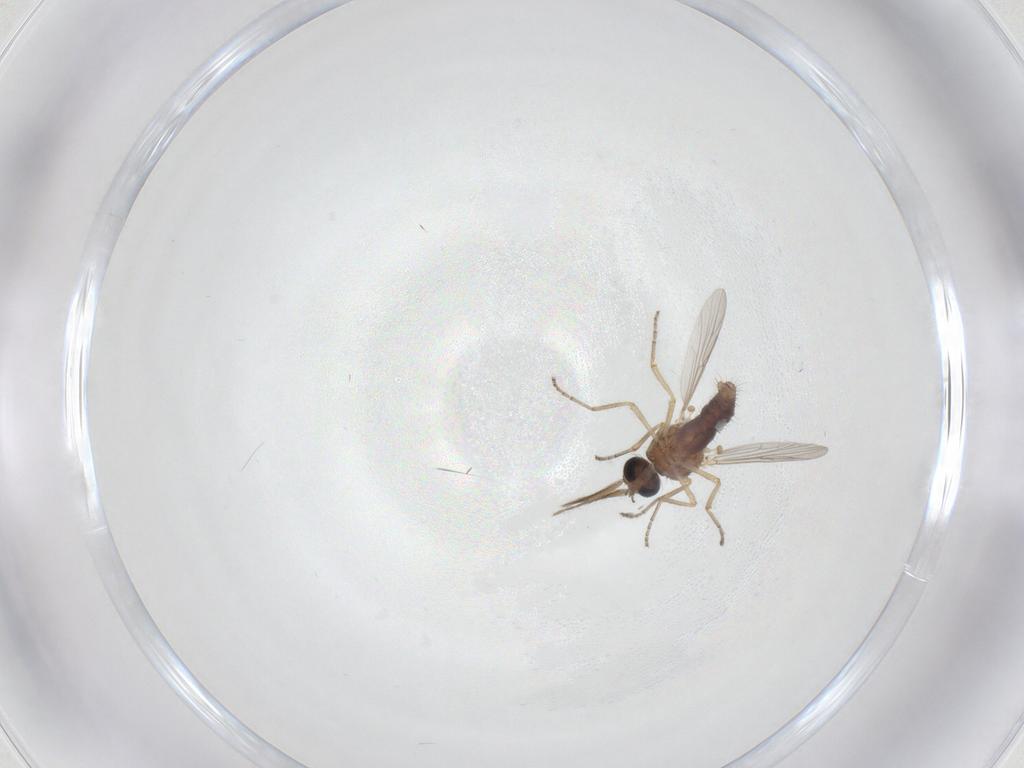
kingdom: Animalia
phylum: Arthropoda
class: Insecta
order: Diptera
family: Ceratopogonidae
